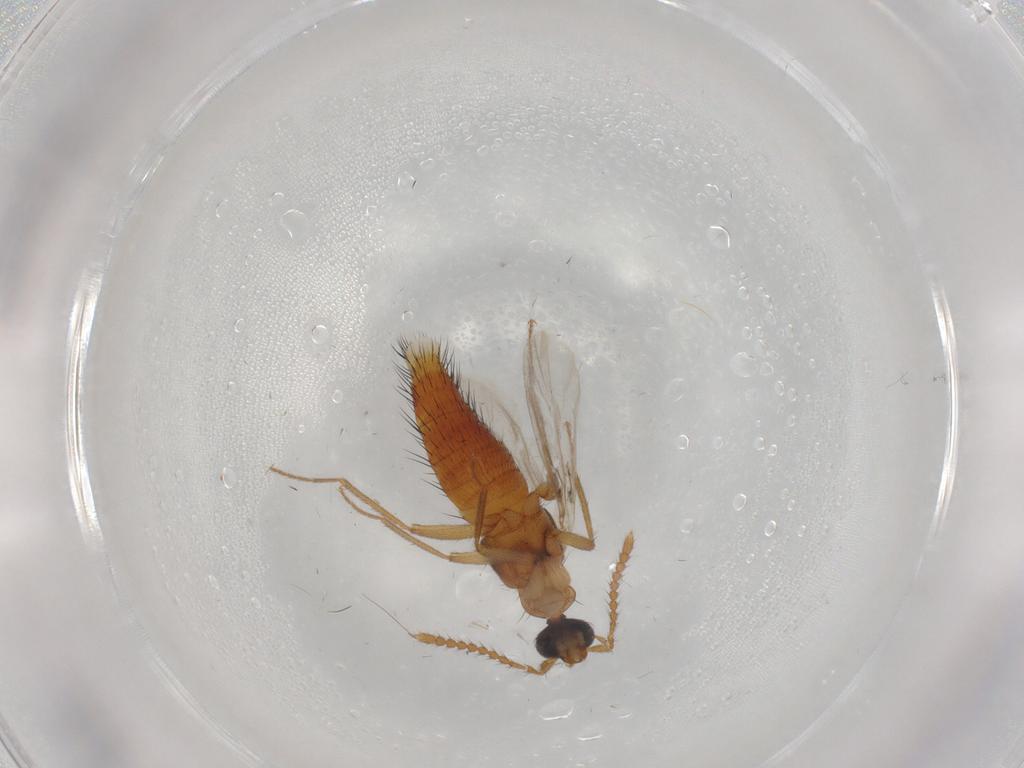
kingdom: Animalia
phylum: Arthropoda
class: Insecta
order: Coleoptera
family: Staphylinidae
